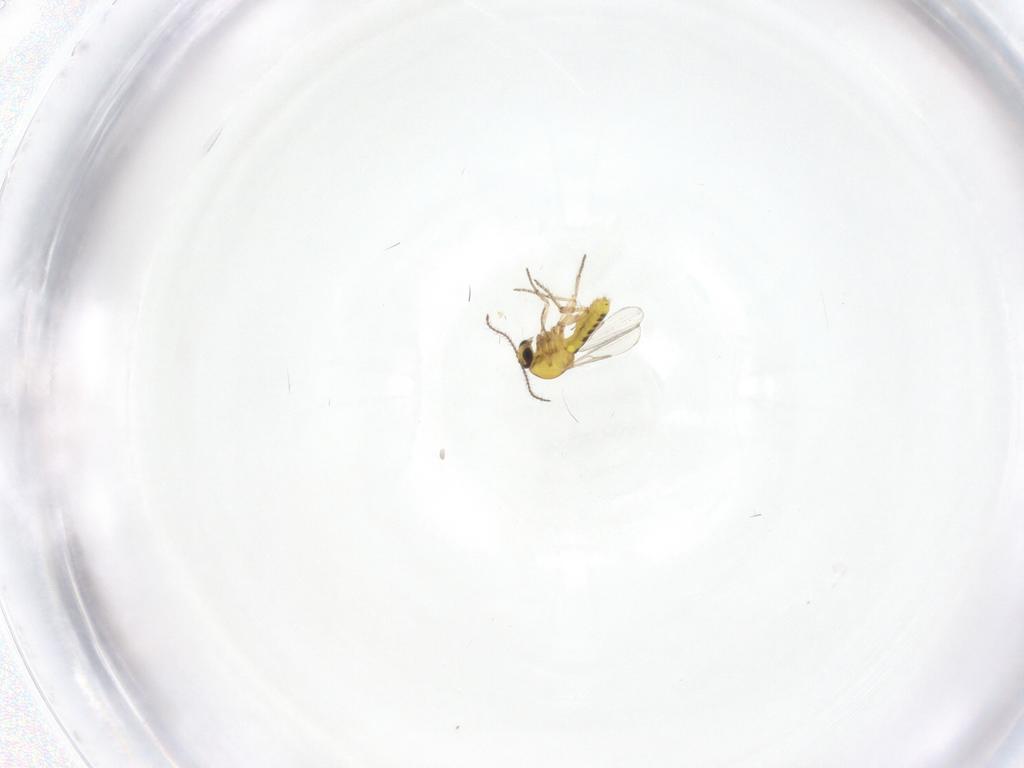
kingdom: Animalia
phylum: Arthropoda
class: Insecta
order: Diptera
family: Ceratopogonidae
